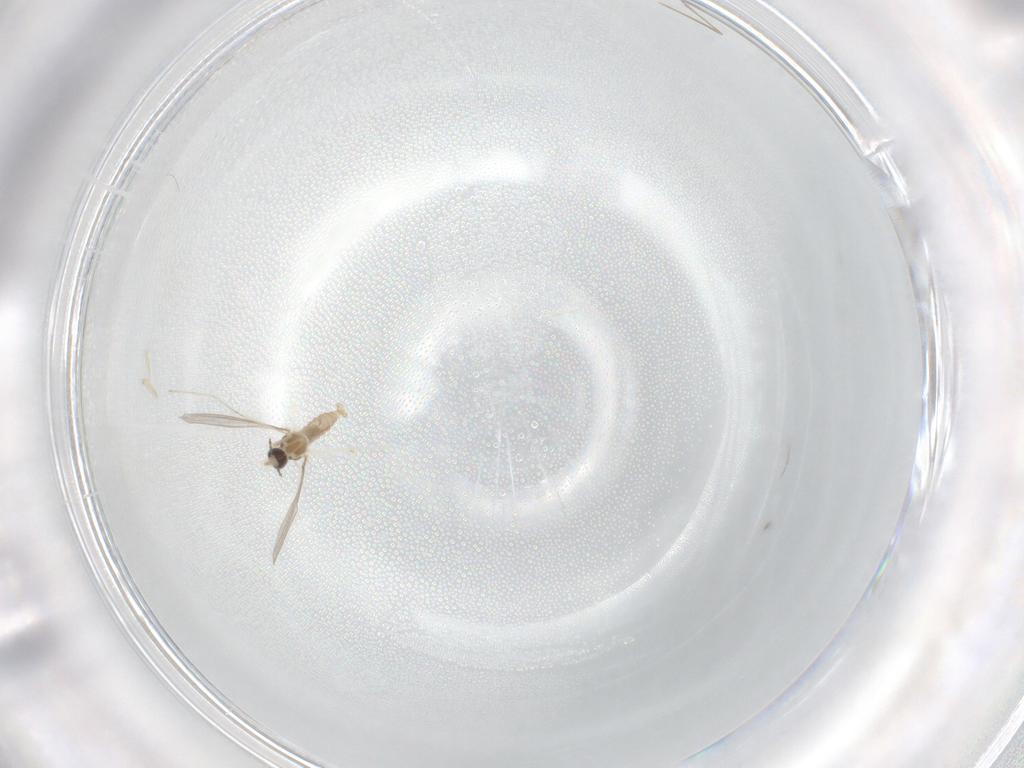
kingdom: Animalia
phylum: Arthropoda
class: Insecta
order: Diptera
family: Cecidomyiidae
